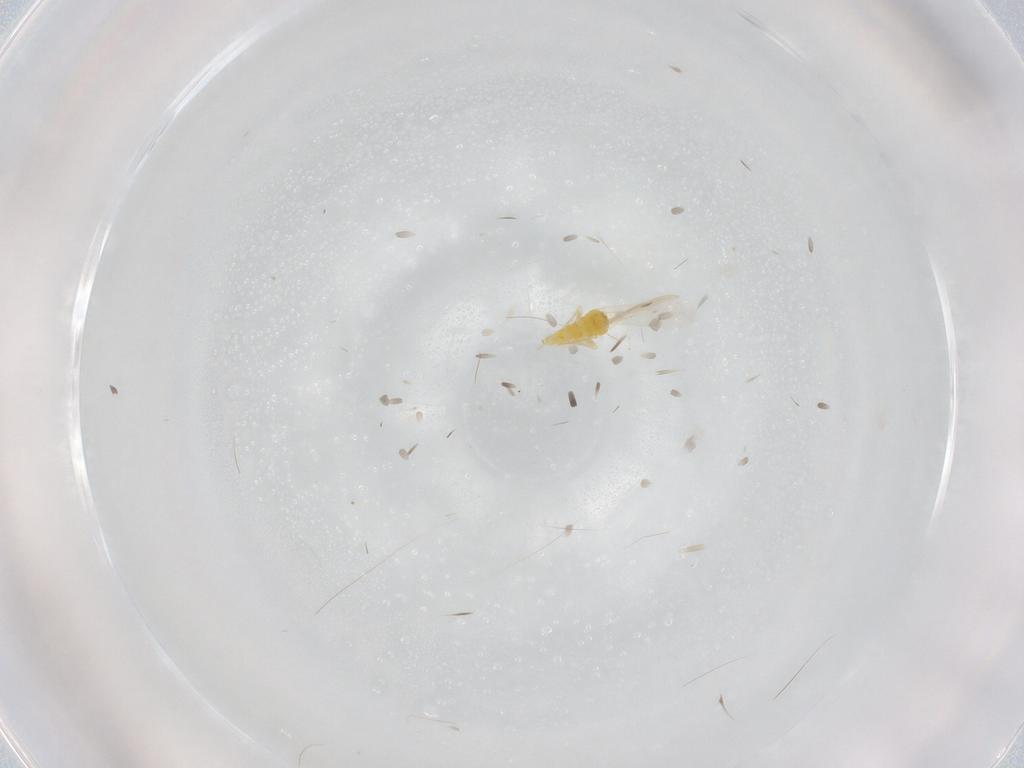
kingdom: Animalia
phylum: Arthropoda
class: Insecta
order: Hemiptera
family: Aleyrodidae
